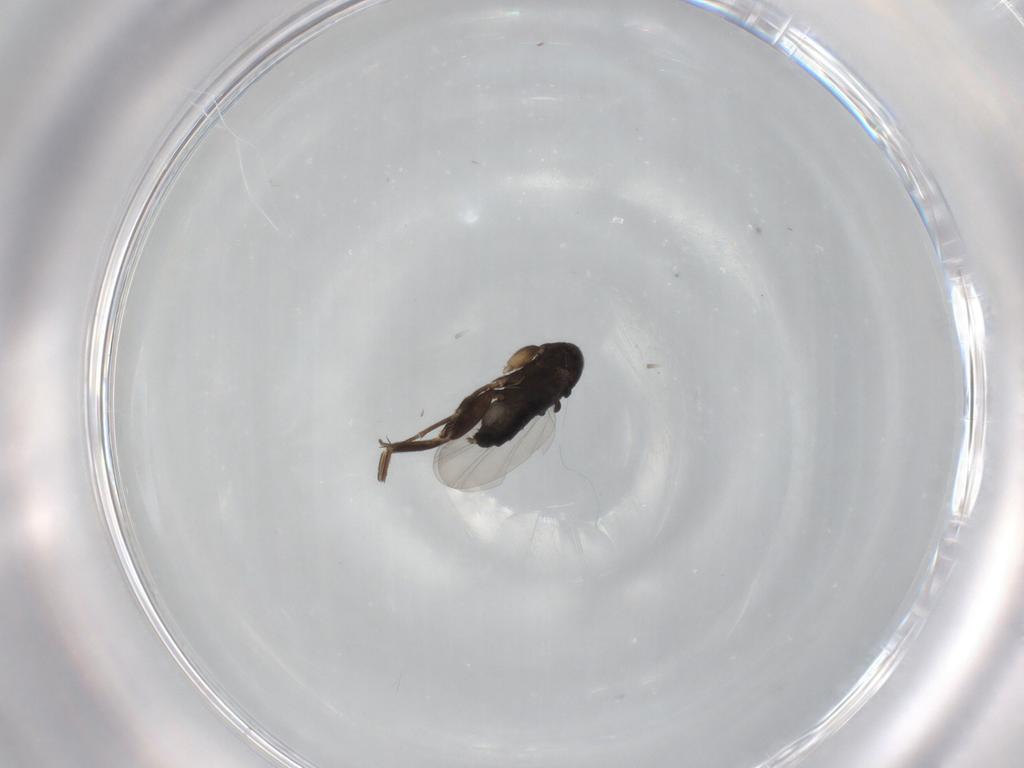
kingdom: Animalia
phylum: Arthropoda
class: Insecta
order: Diptera
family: Phoridae
